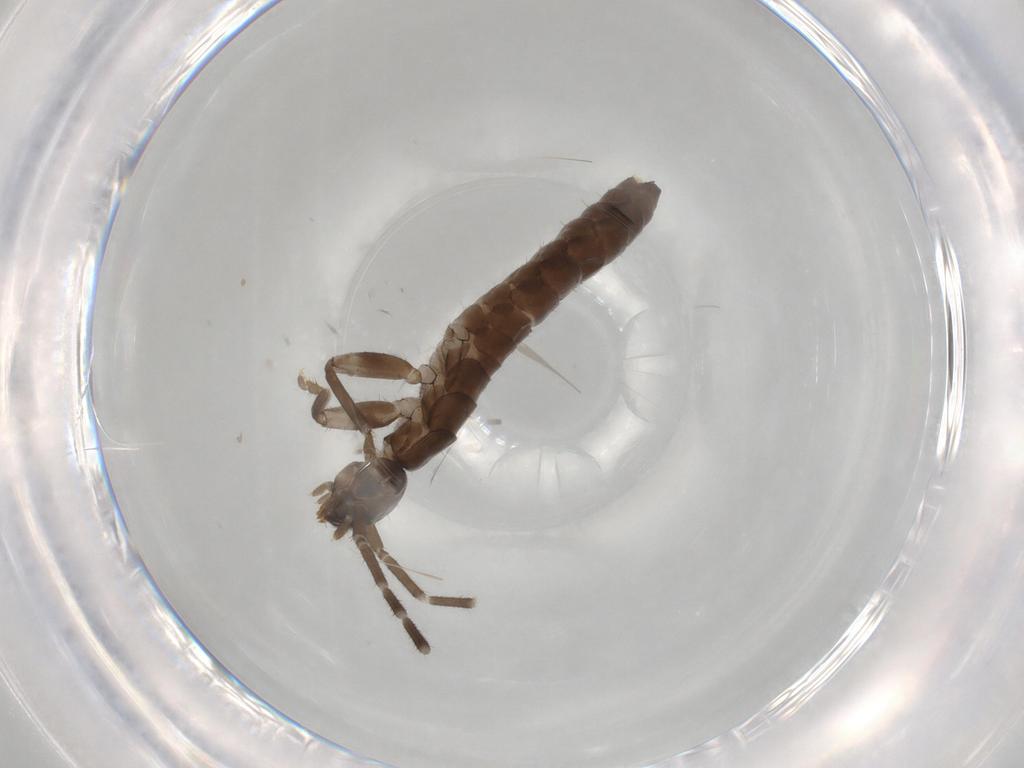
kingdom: Animalia
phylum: Arthropoda
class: Insecta
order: Dermaptera
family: Forficulidae
